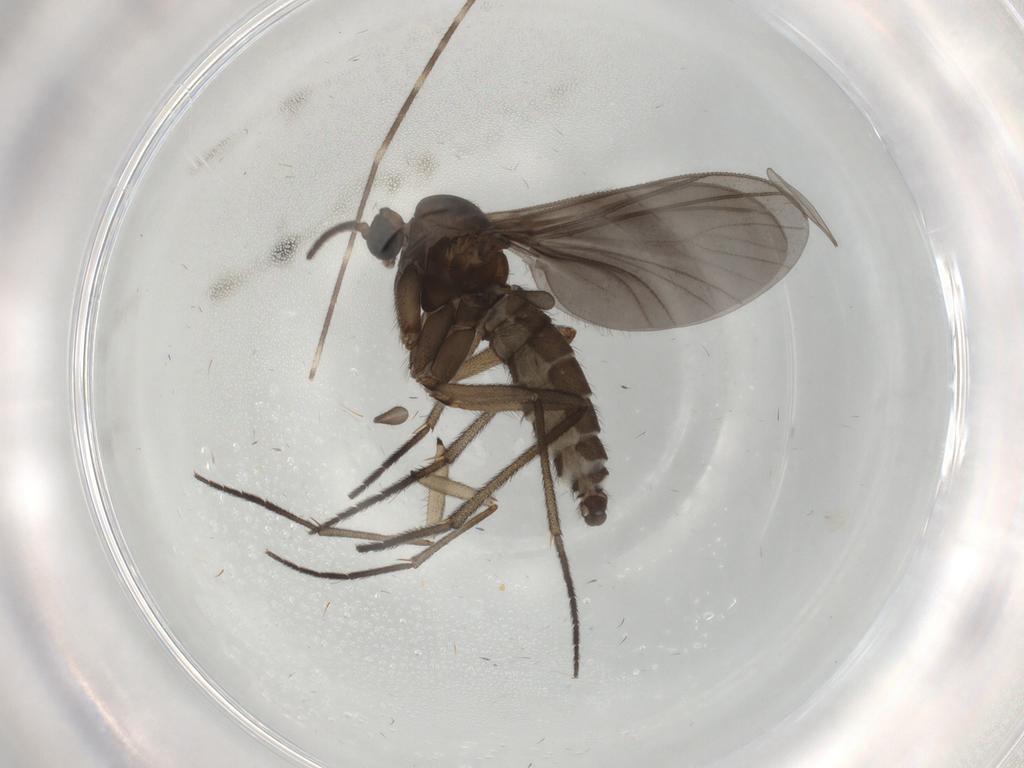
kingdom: Animalia
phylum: Arthropoda
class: Insecta
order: Diptera
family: Sciaridae
